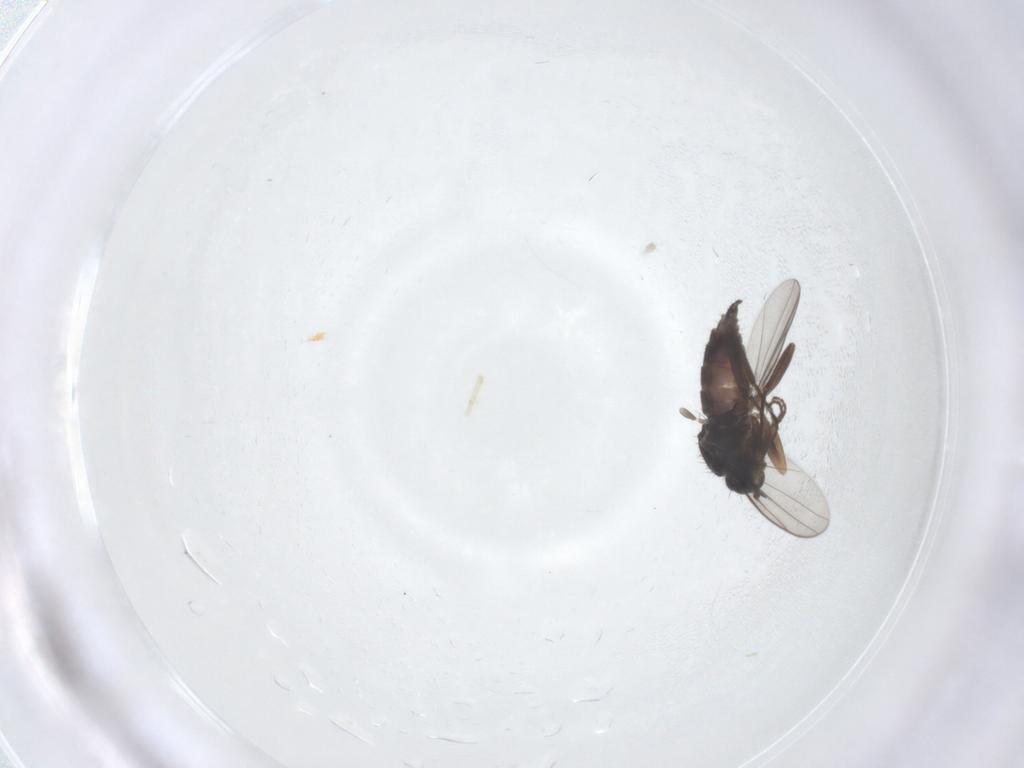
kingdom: Animalia
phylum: Arthropoda
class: Insecta
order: Diptera
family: Hybotidae
